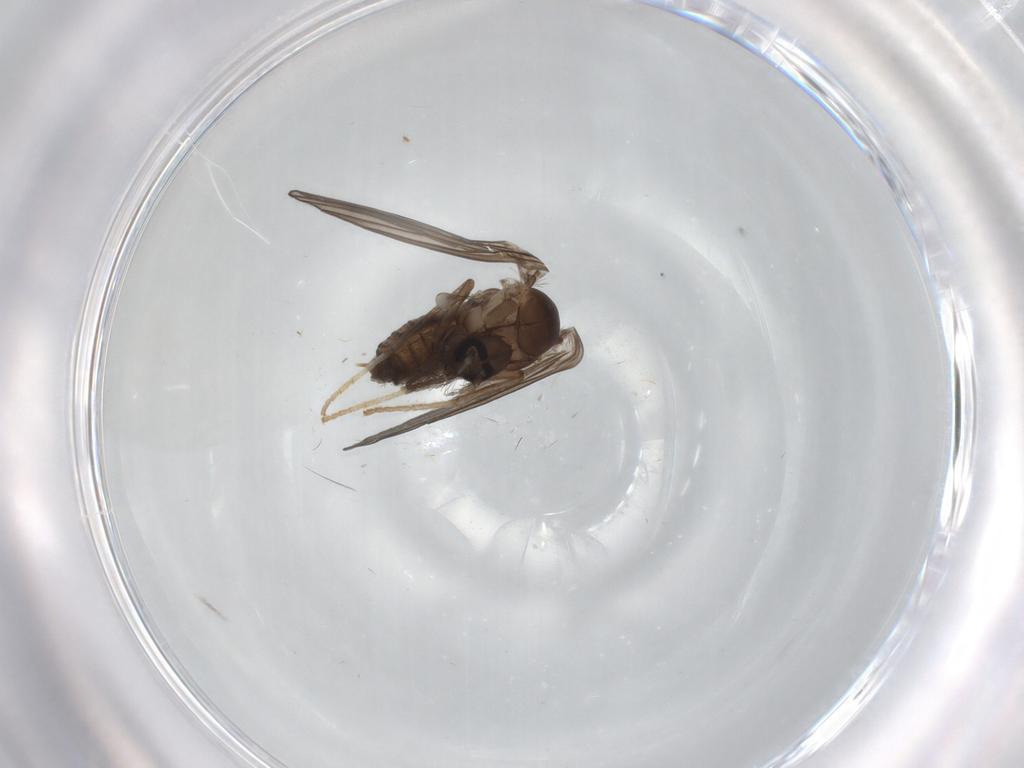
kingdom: Animalia
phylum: Arthropoda
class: Insecta
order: Diptera
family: Psychodidae
